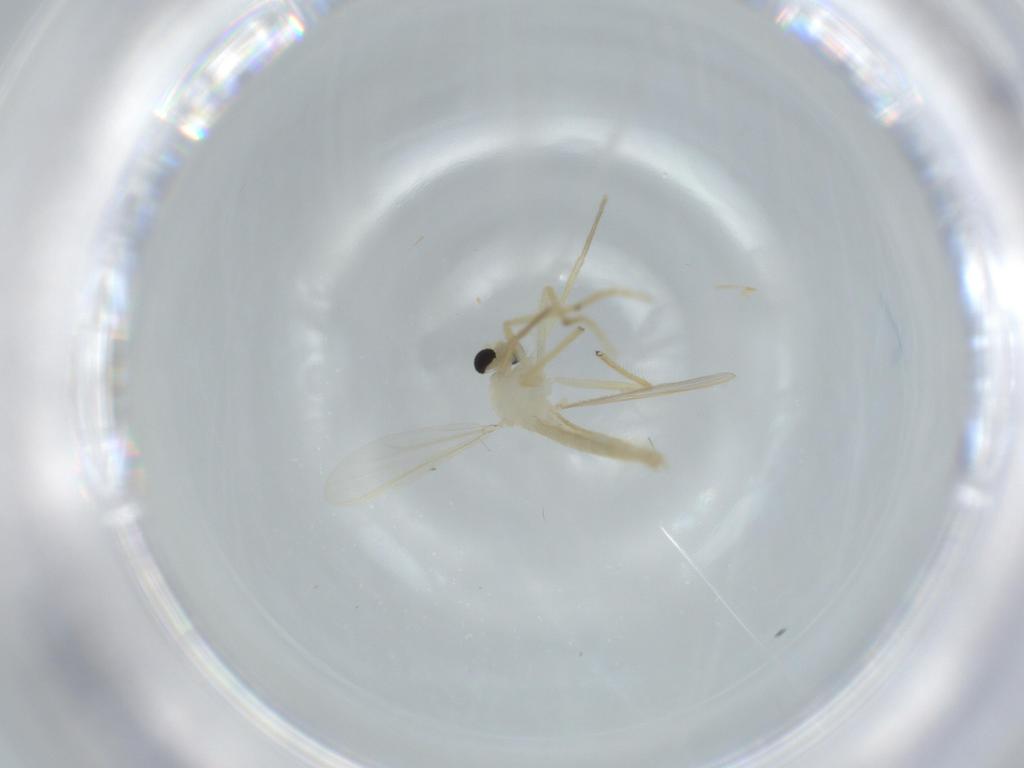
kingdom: Animalia
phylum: Arthropoda
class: Insecta
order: Diptera
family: Chironomidae
